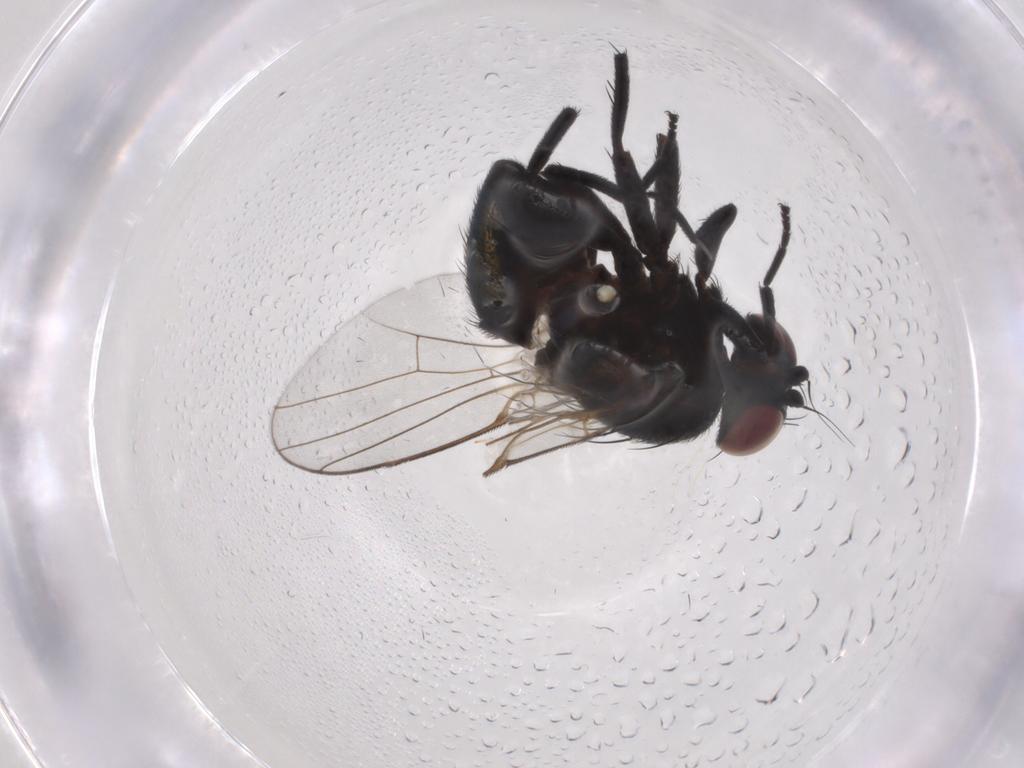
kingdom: Animalia
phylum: Arthropoda
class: Insecta
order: Diptera
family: Agromyzidae
